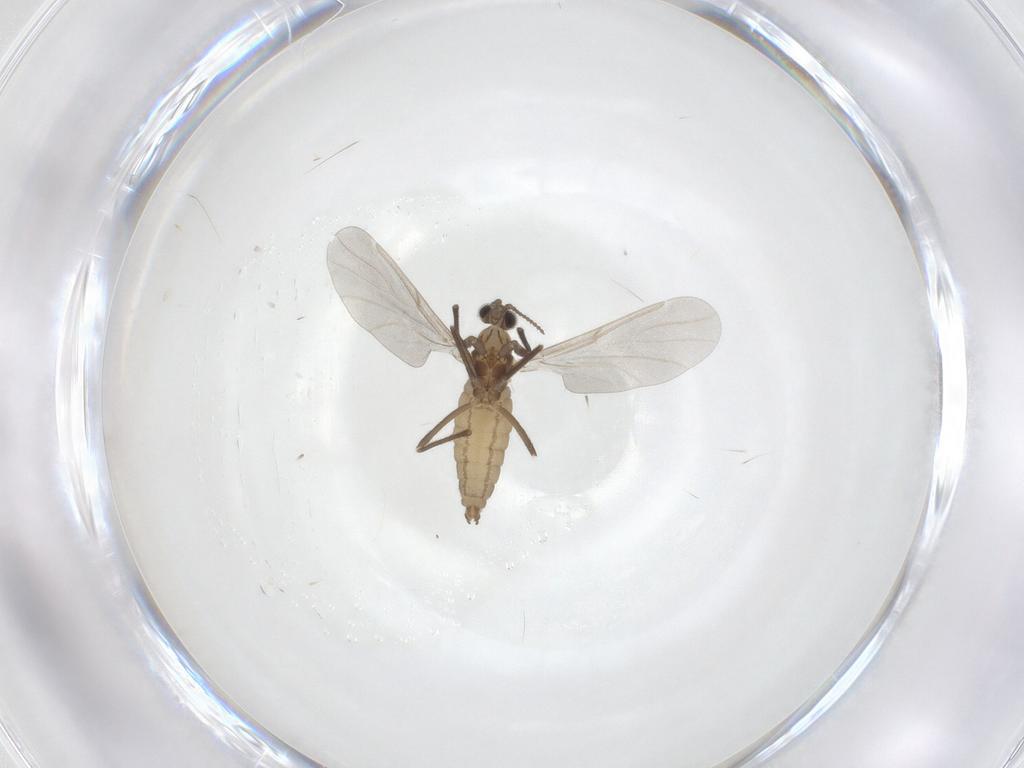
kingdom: Animalia
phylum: Arthropoda
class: Insecta
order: Diptera
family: Cecidomyiidae
